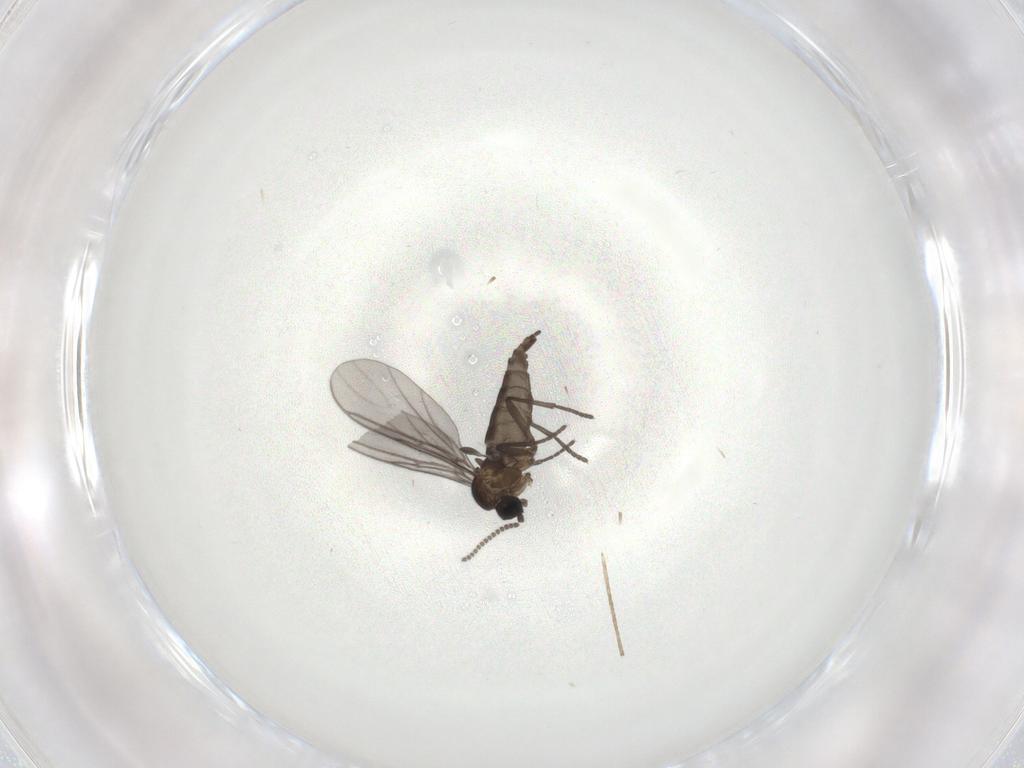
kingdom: Animalia
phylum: Arthropoda
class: Insecta
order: Diptera
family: Sciaridae
